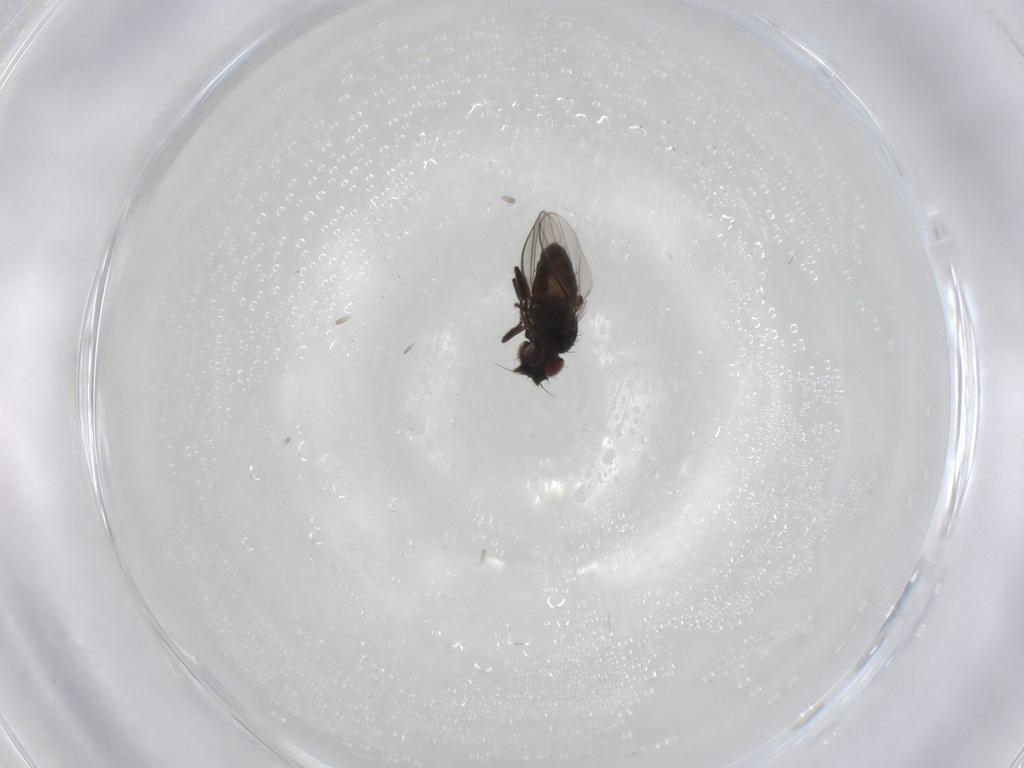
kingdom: Animalia
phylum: Arthropoda
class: Insecta
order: Diptera
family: Milichiidae
